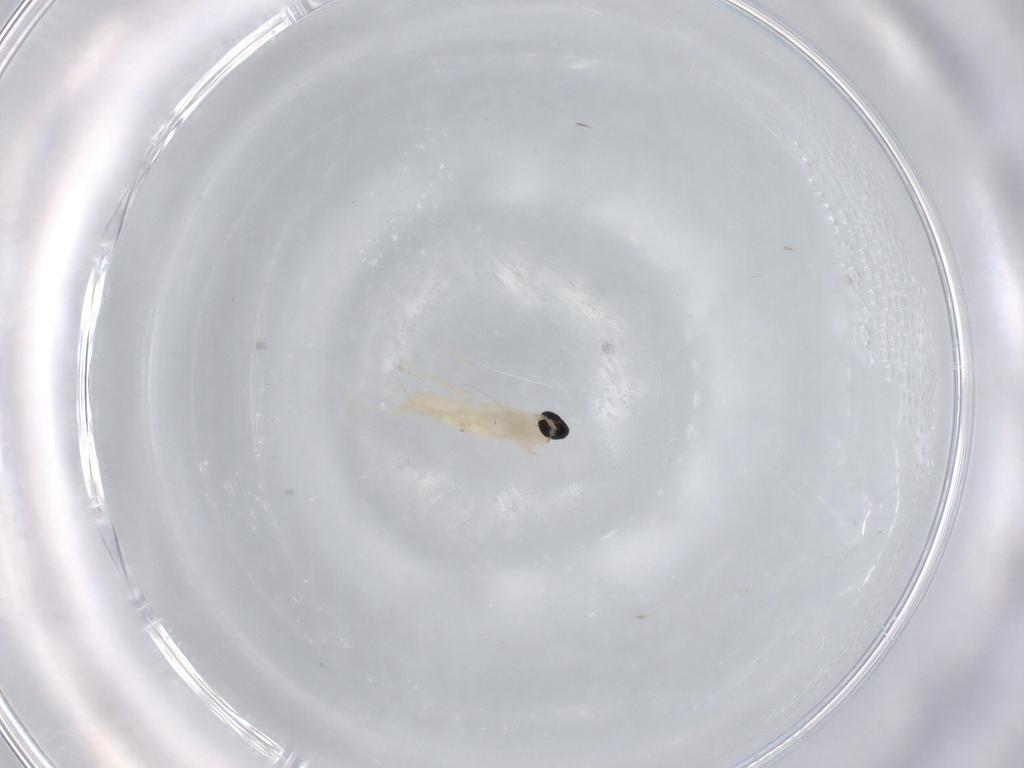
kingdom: Animalia
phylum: Arthropoda
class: Insecta
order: Diptera
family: Cecidomyiidae
